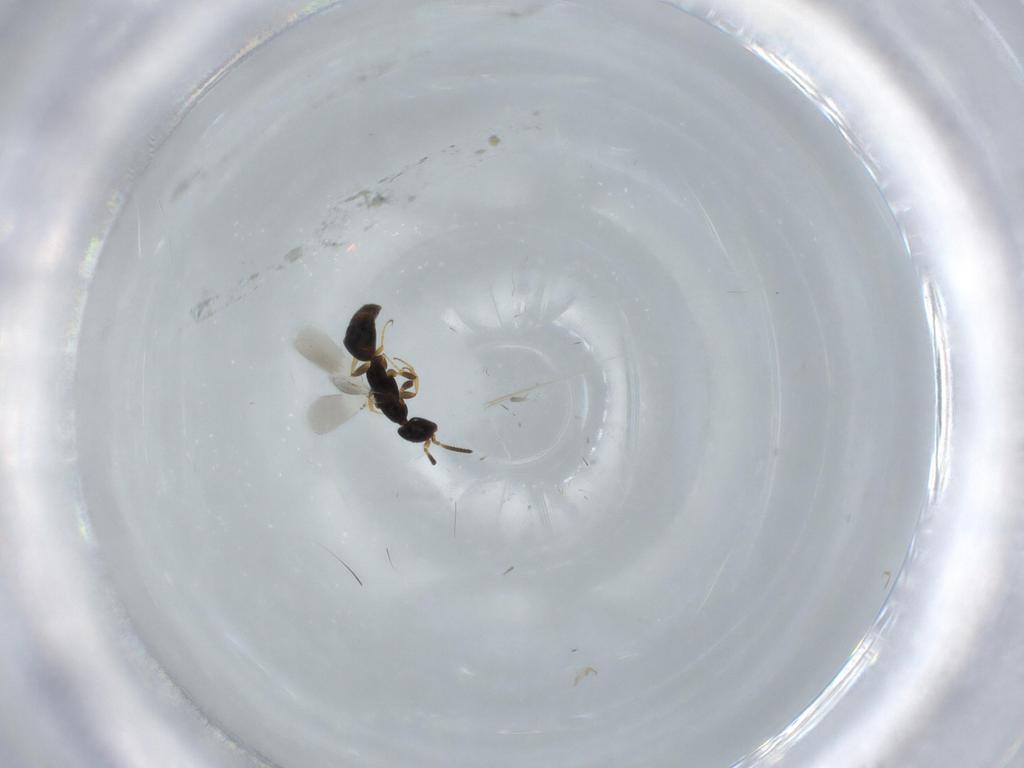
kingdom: Animalia
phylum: Arthropoda
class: Insecta
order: Hymenoptera
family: Bethylidae
